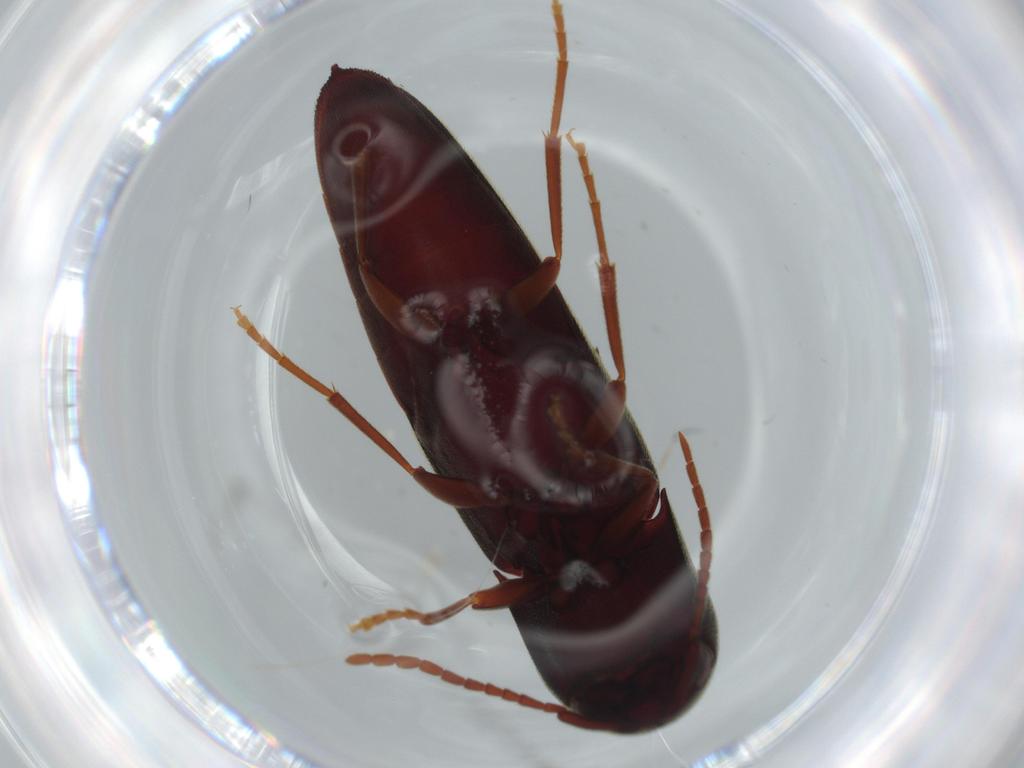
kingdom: Animalia
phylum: Arthropoda
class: Insecta
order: Coleoptera
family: Eucnemidae
